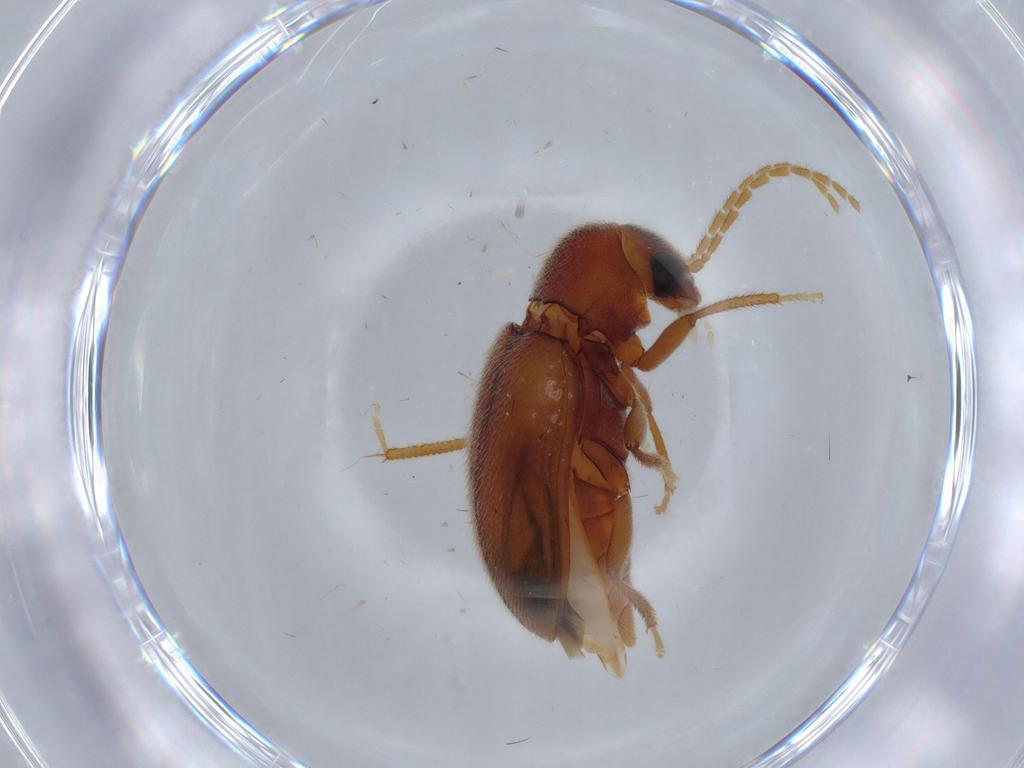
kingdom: Animalia
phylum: Arthropoda
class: Insecta
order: Coleoptera
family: Ptilodactylidae
